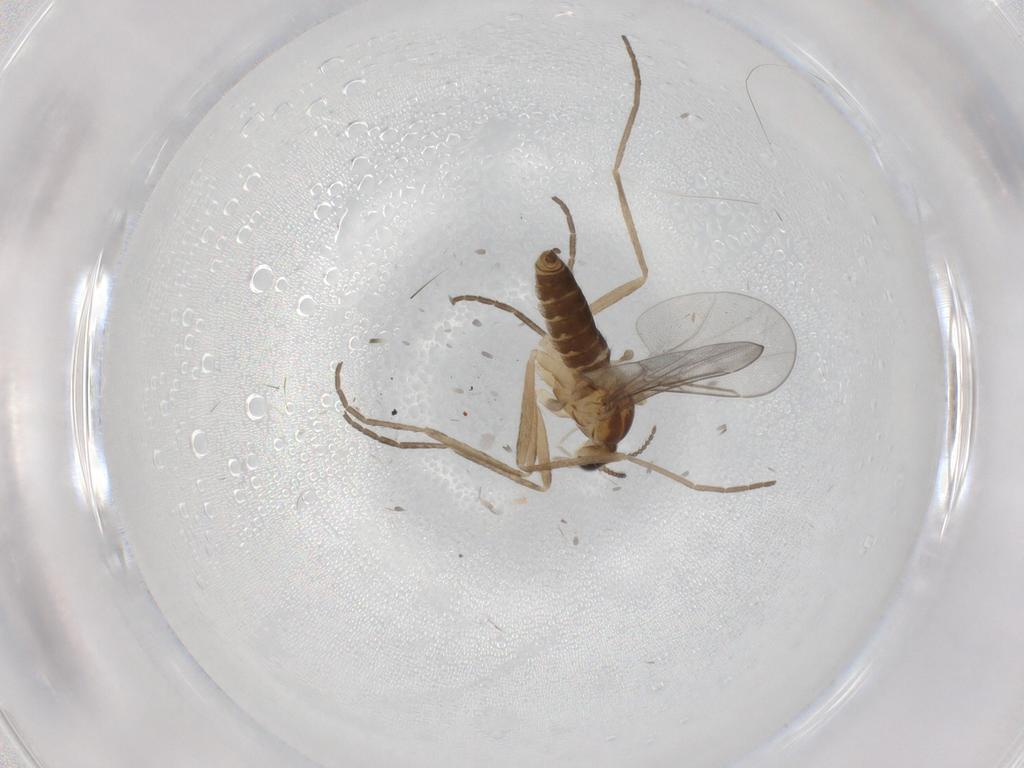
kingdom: Animalia
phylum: Arthropoda
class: Insecta
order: Diptera
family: Cecidomyiidae
